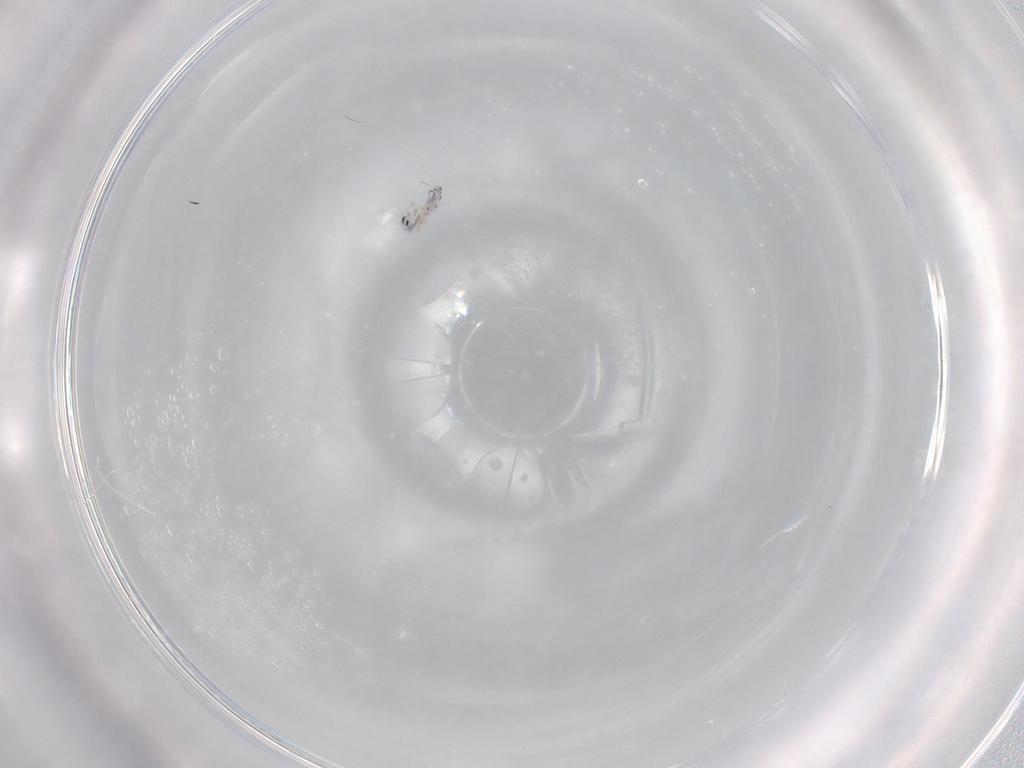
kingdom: Animalia
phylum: Arthropoda
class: Collembola
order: Entomobryomorpha
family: Entomobryidae
